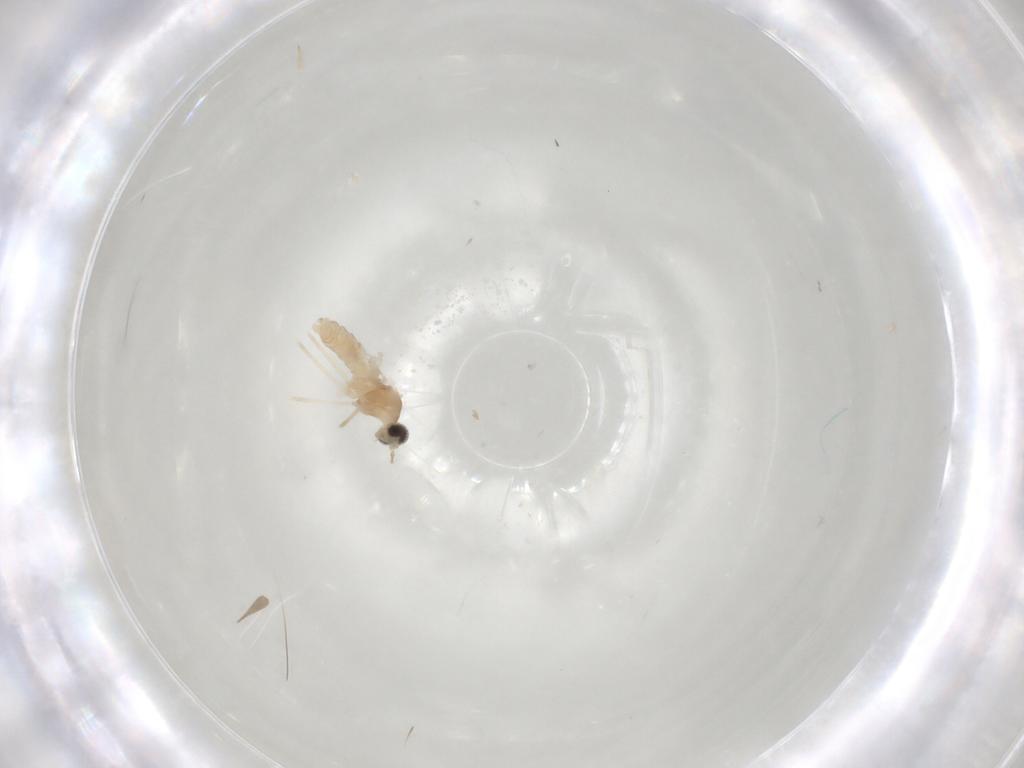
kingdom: Animalia
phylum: Arthropoda
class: Insecta
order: Diptera
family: Cecidomyiidae
